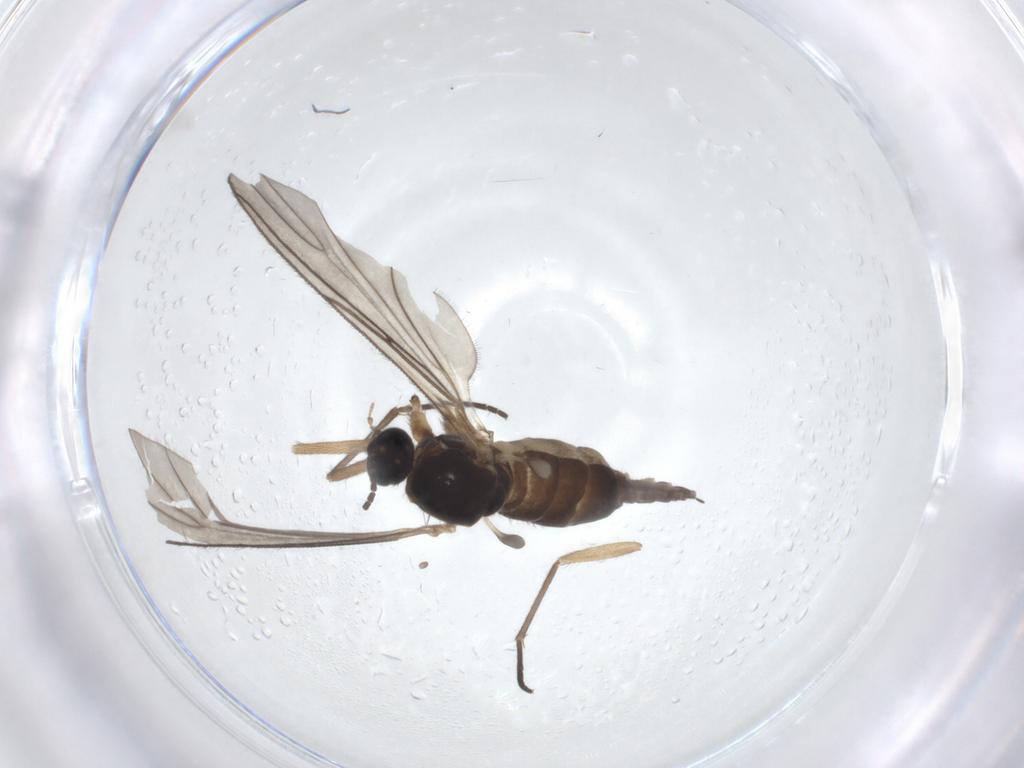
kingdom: Animalia
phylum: Arthropoda
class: Insecta
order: Diptera
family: Sciaridae
